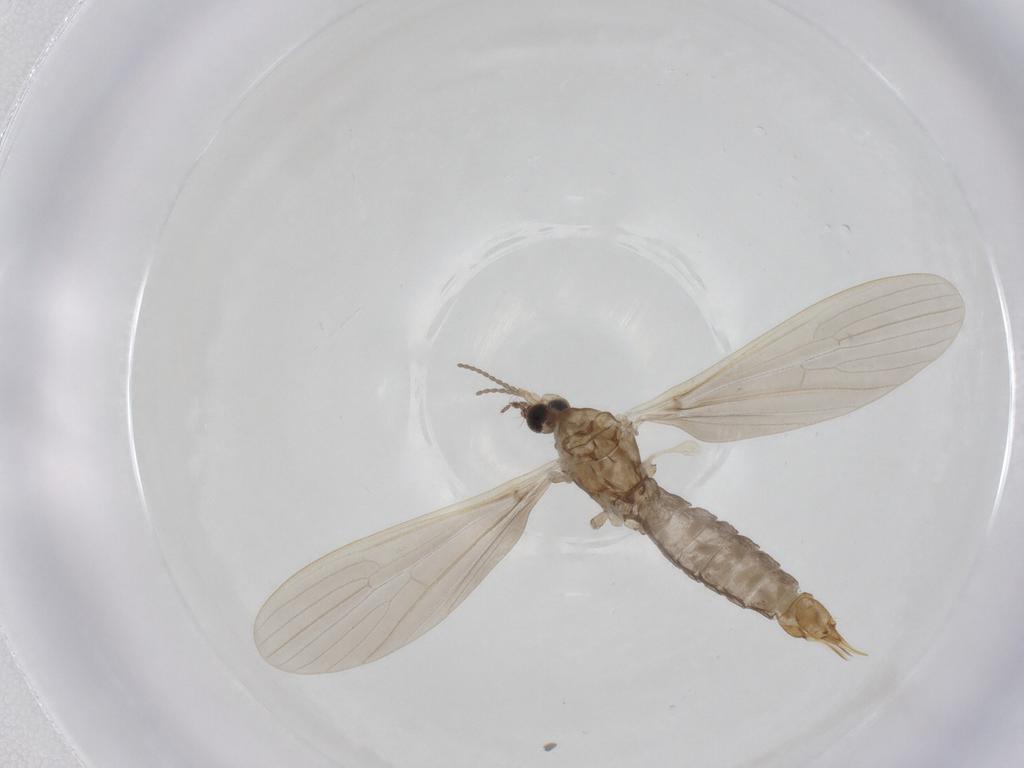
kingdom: Animalia
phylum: Arthropoda
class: Insecta
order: Diptera
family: Limoniidae
